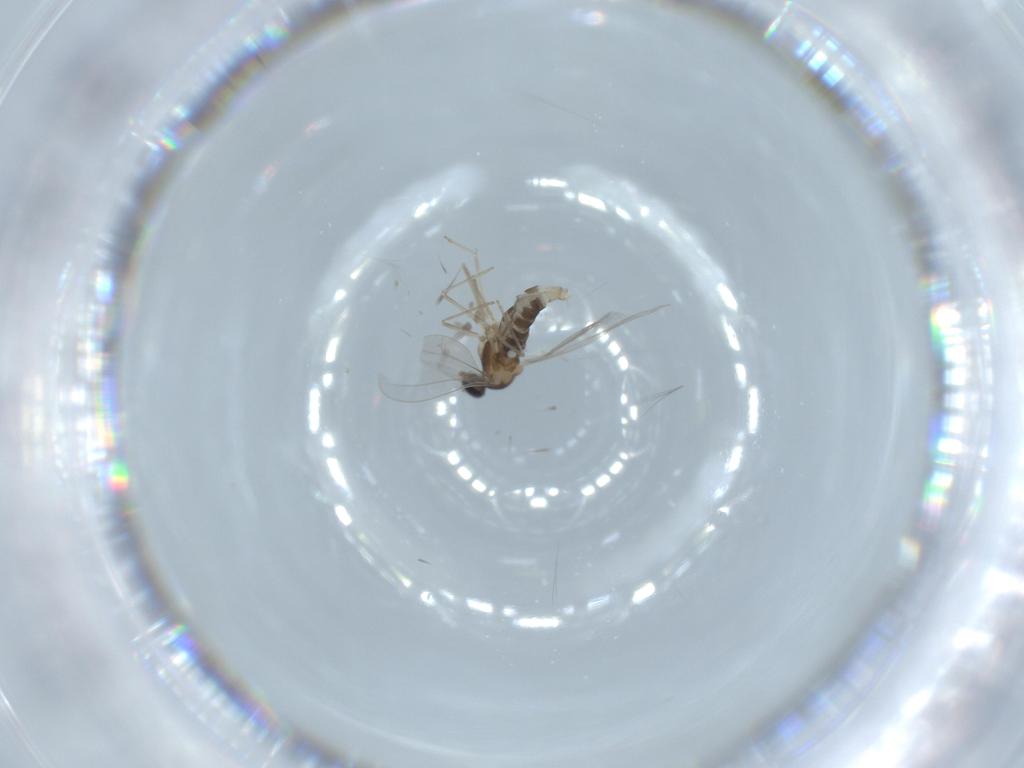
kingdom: Animalia
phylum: Arthropoda
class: Insecta
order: Diptera
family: Cecidomyiidae
